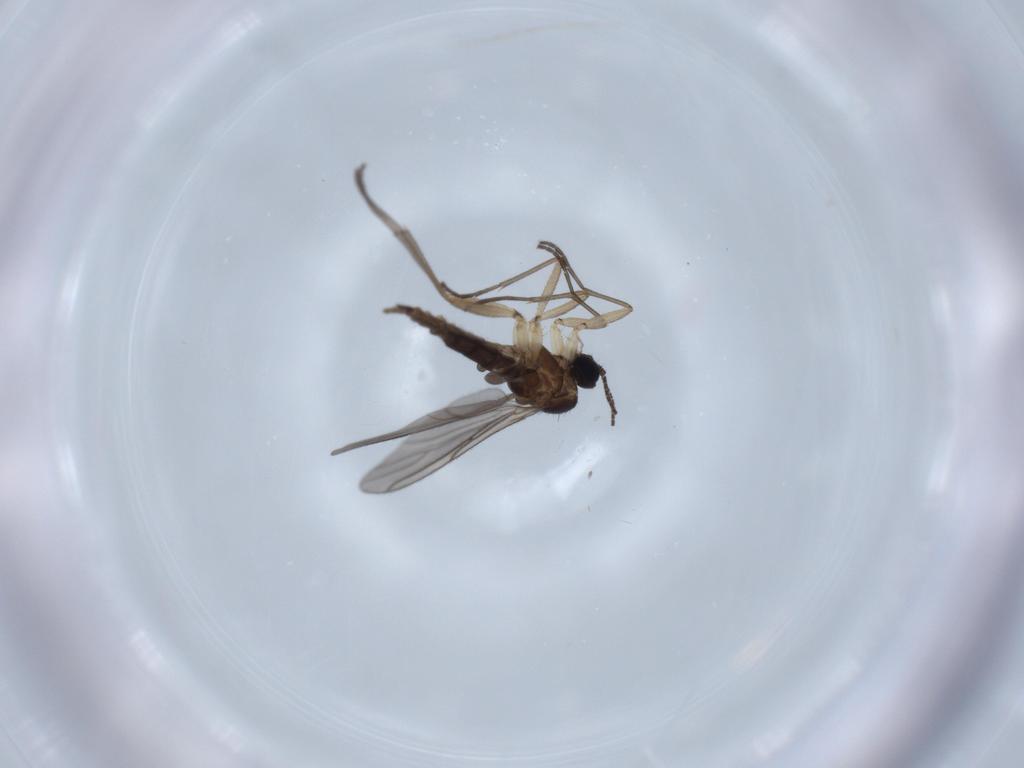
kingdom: Animalia
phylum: Arthropoda
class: Insecta
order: Diptera
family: Sciaridae
